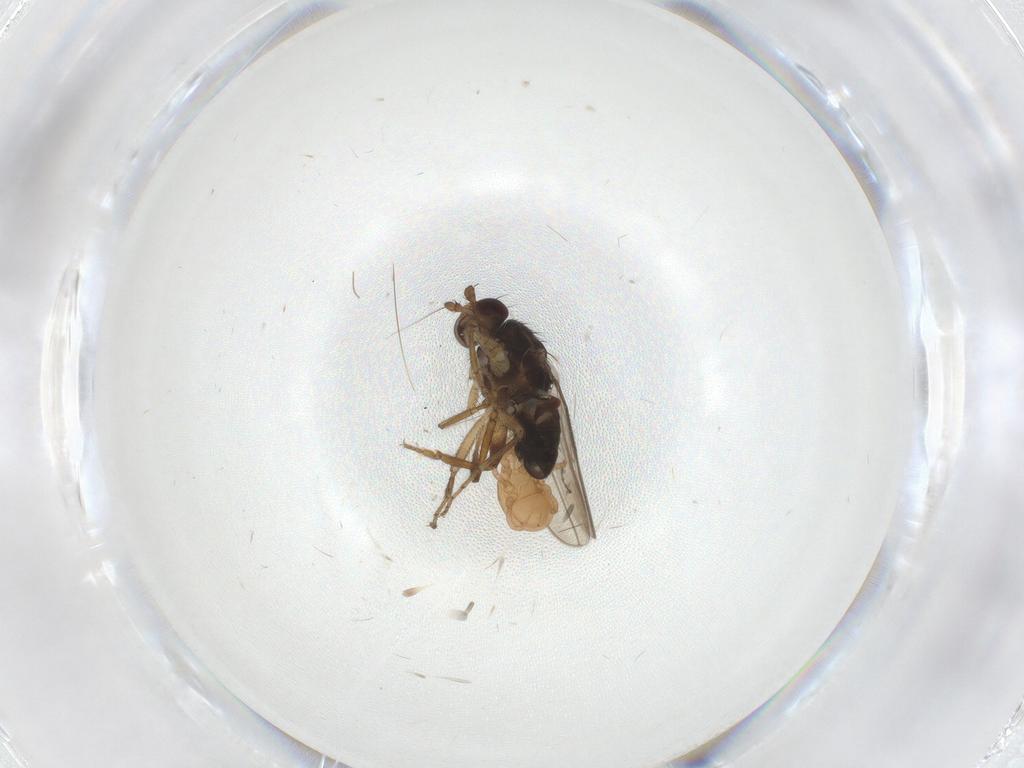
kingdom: Animalia
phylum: Arthropoda
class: Insecta
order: Diptera
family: Sphaeroceridae
